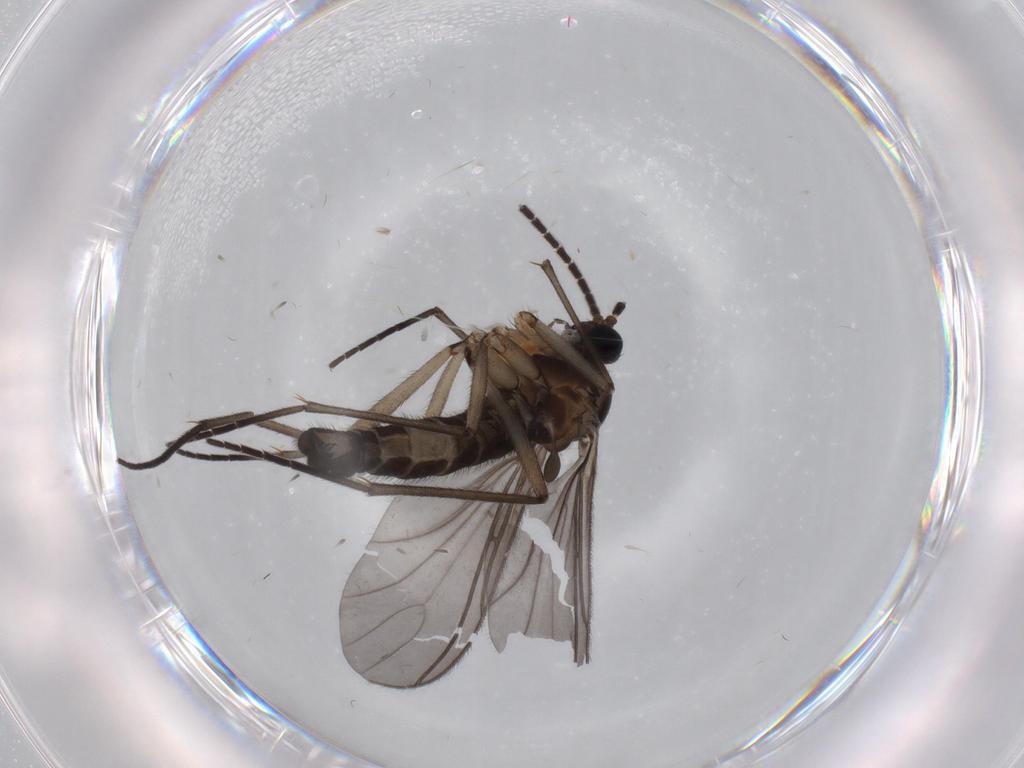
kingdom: Animalia
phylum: Arthropoda
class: Insecta
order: Diptera
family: Sciaridae
